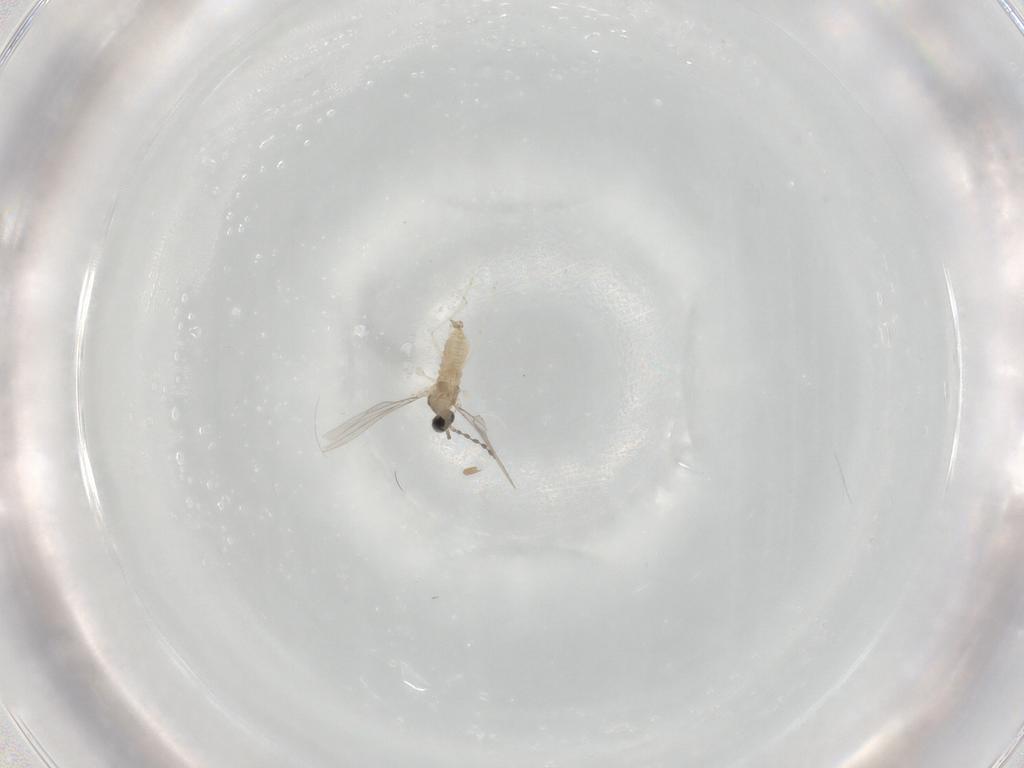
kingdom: Animalia
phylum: Arthropoda
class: Insecta
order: Diptera
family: Cecidomyiidae
